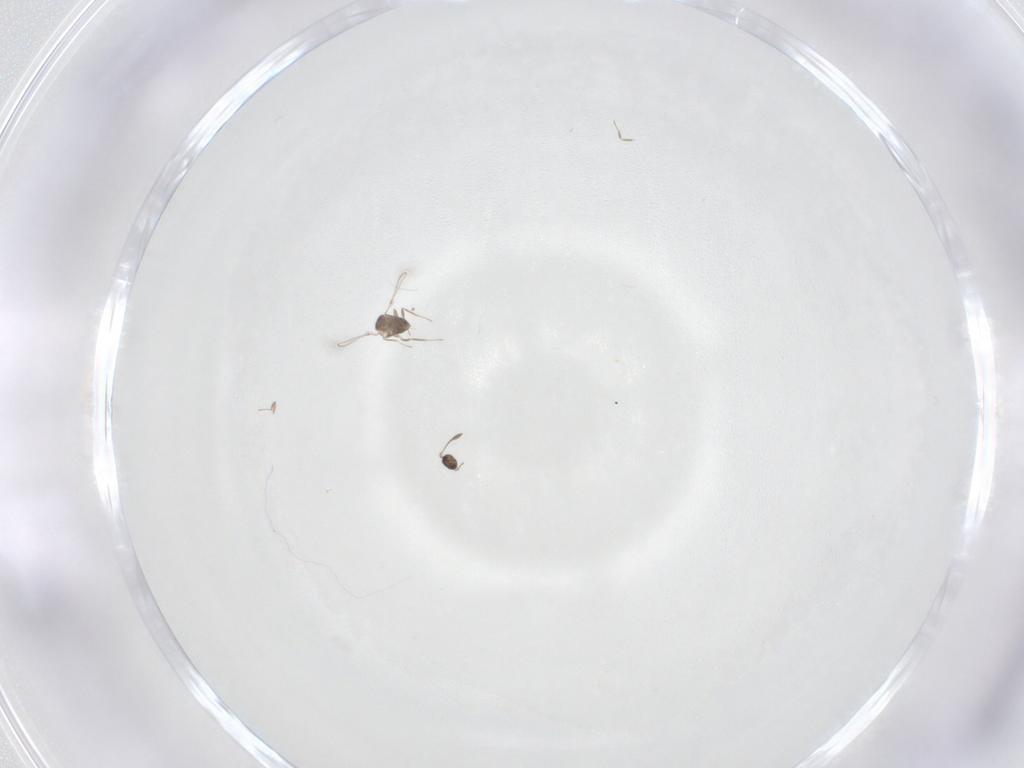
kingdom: Animalia
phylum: Arthropoda
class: Insecta
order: Hymenoptera
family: Mymaridae
